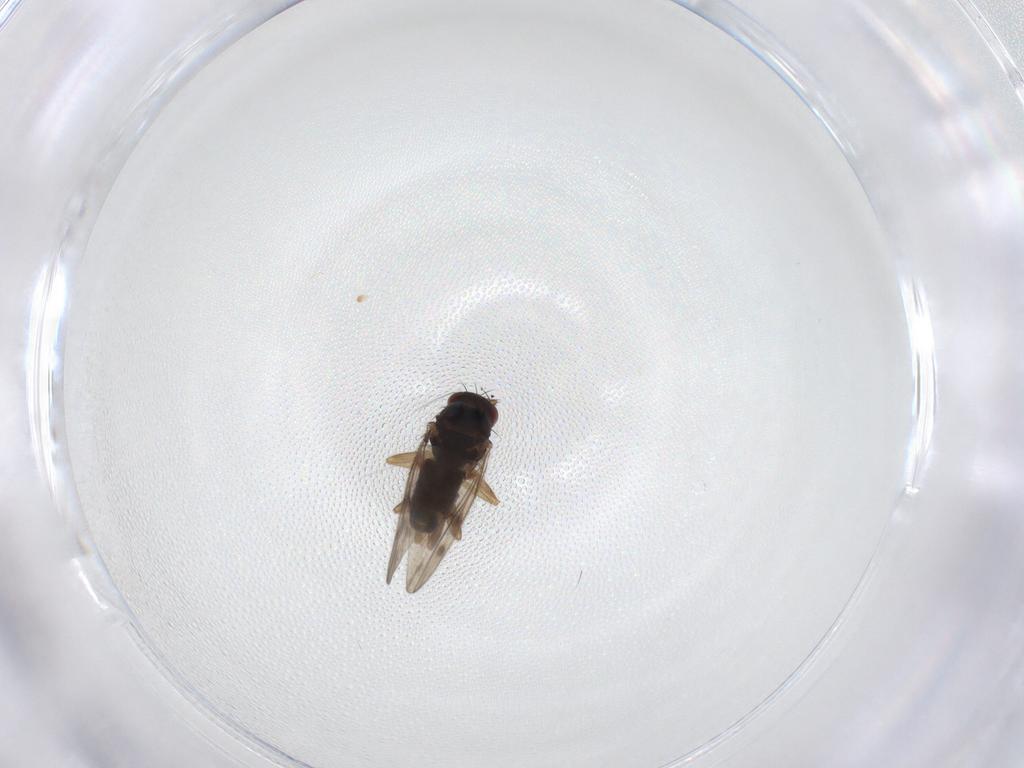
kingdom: Animalia
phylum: Arthropoda
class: Insecta
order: Diptera
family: Sphaeroceridae
